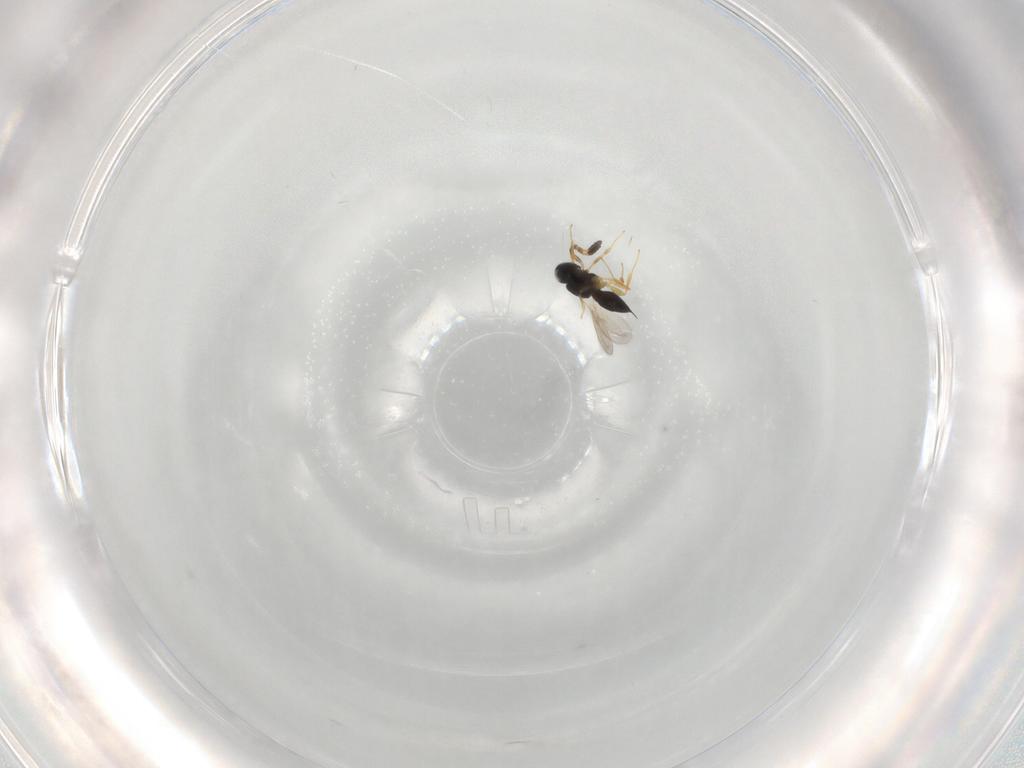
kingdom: Animalia
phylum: Arthropoda
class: Insecta
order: Hymenoptera
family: Scelionidae
